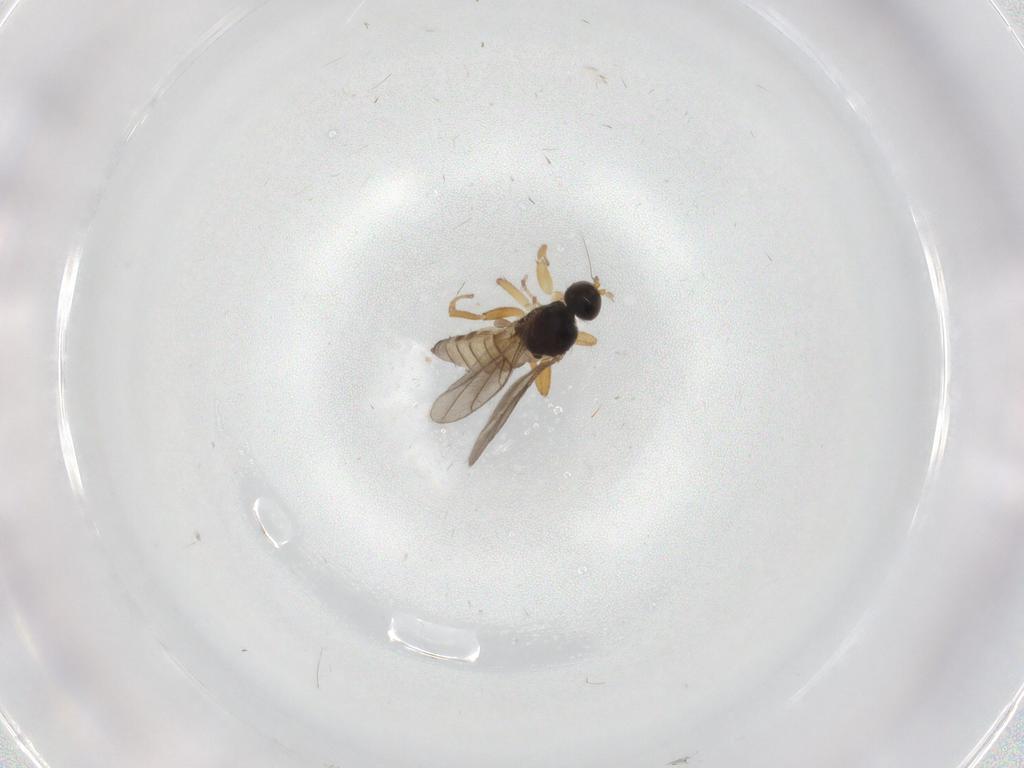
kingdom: Animalia
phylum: Arthropoda
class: Insecta
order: Diptera
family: Hybotidae
